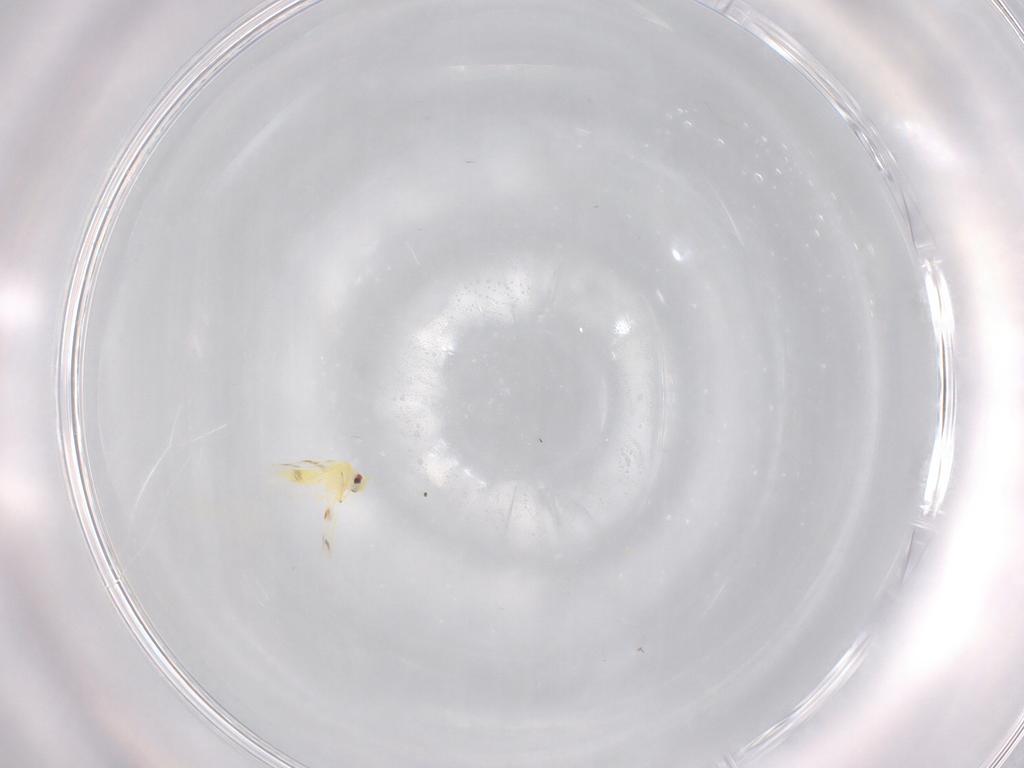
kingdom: Animalia
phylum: Arthropoda
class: Insecta
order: Hemiptera
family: Aleyrodidae
